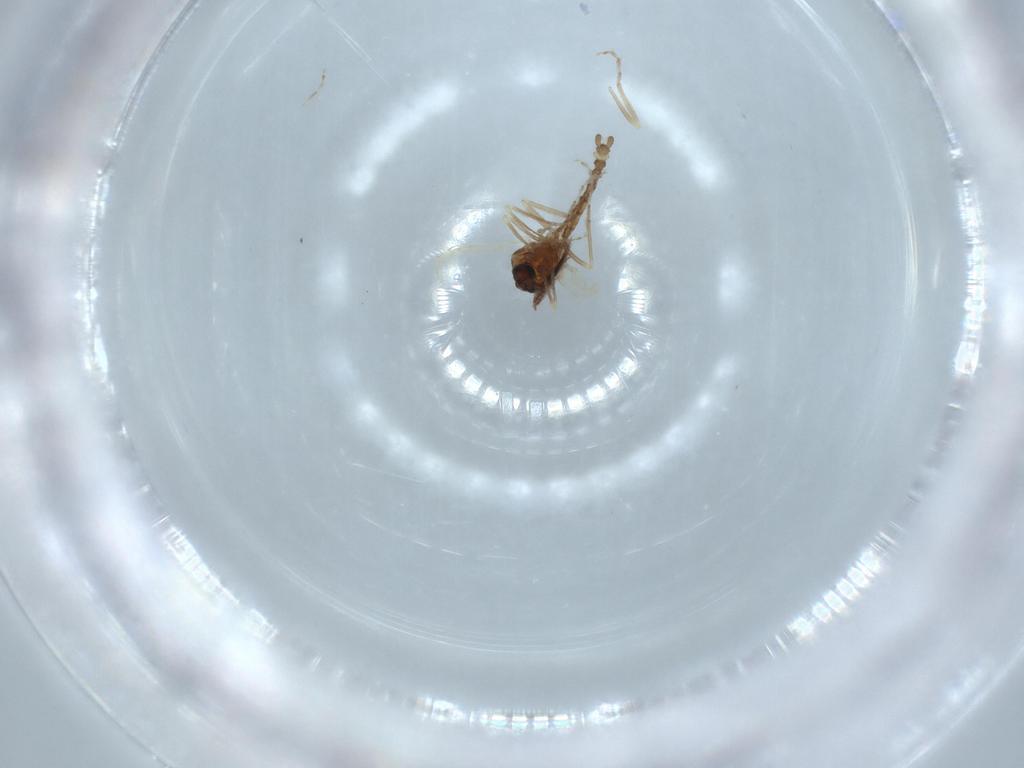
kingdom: Animalia
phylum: Arthropoda
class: Insecta
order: Diptera
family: Ceratopogonidae
